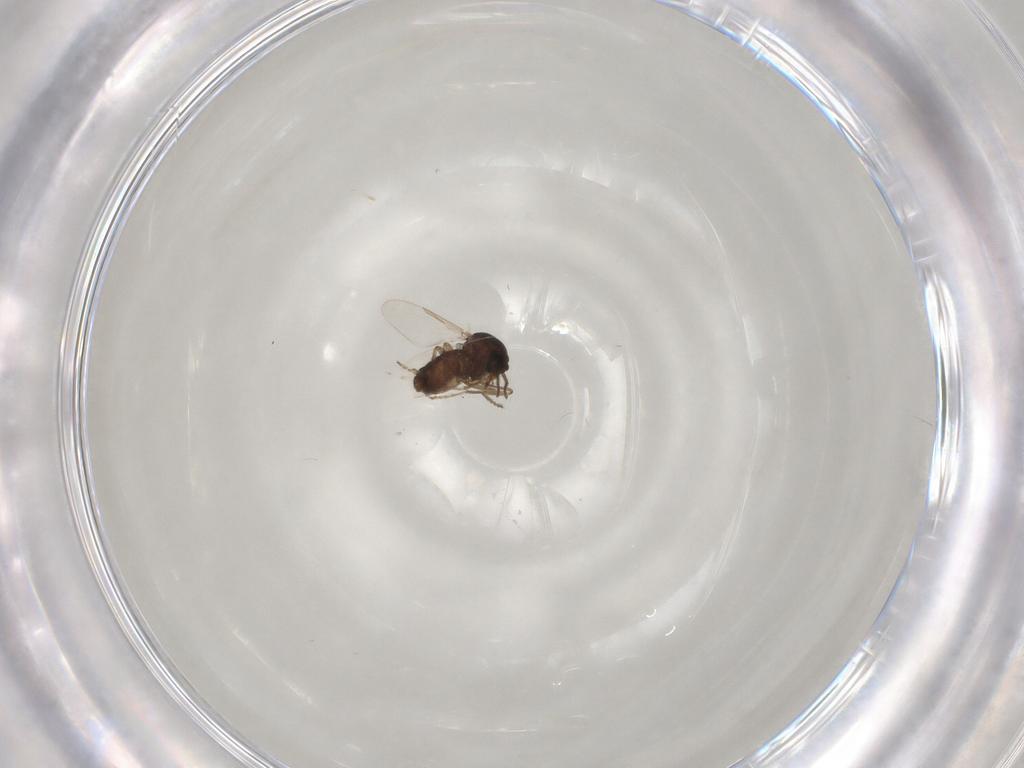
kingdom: Animalia
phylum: Arthropoda
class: Insecta
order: Diptera
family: Ceratopogonidae
